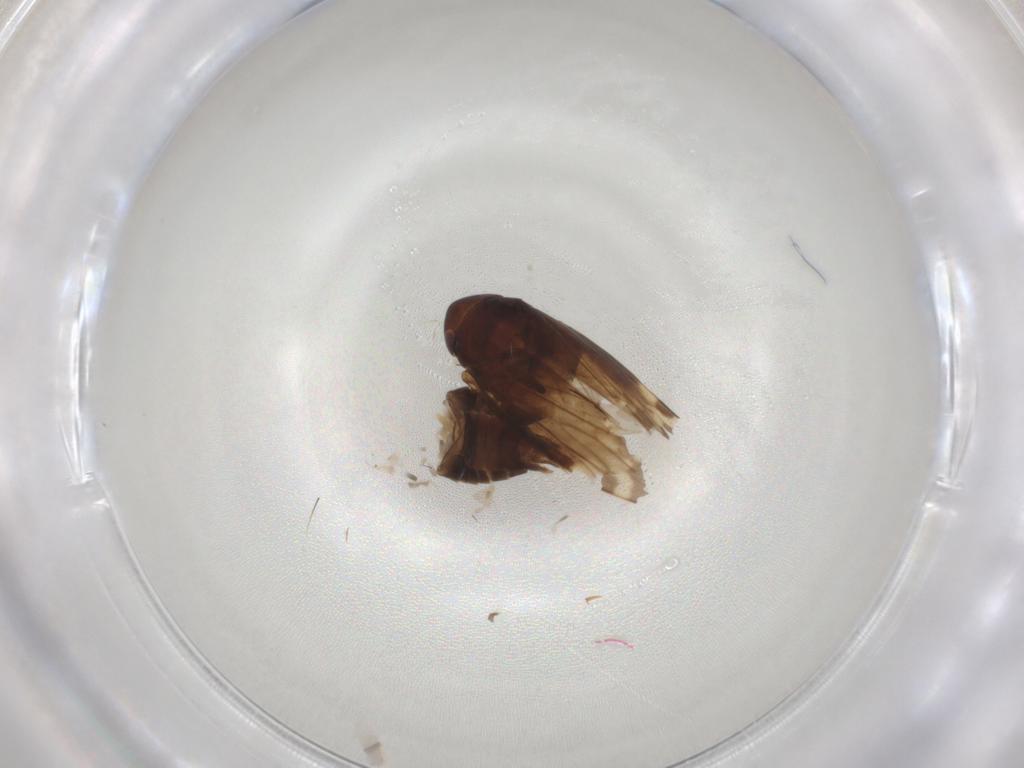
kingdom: Animalia
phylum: Arthropoda
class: Insecta
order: Hemiptera
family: Cicadellidae
